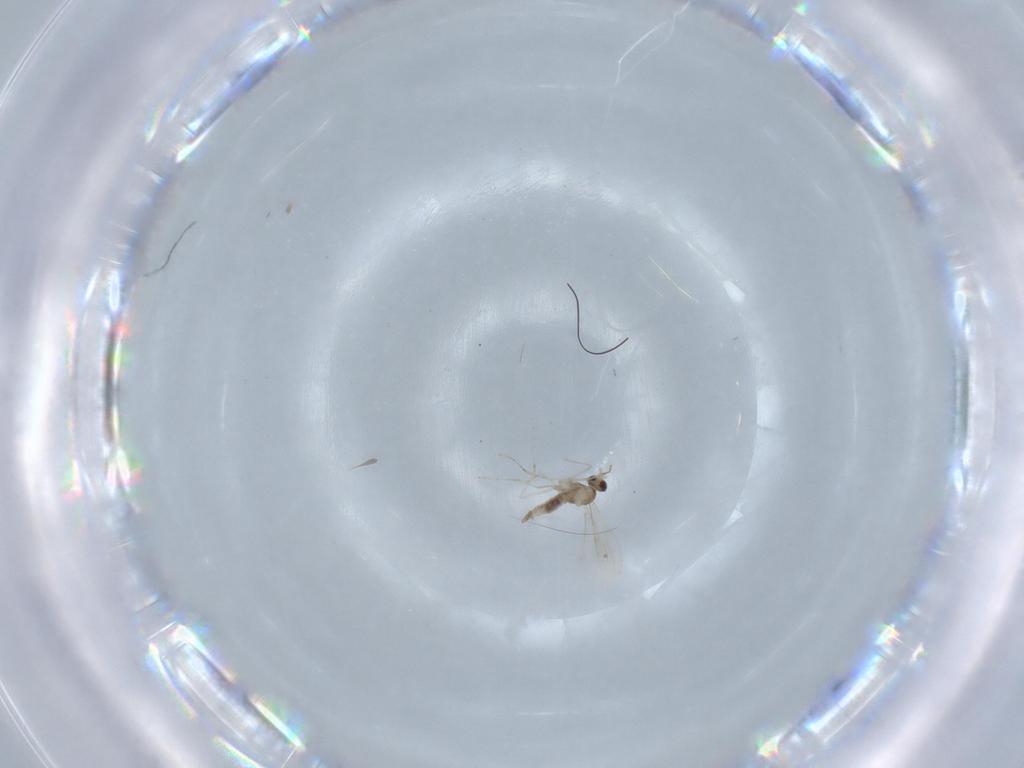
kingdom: Animalia
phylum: Arthropoda
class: Insecta
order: Diptera
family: Cecidomyiidae
